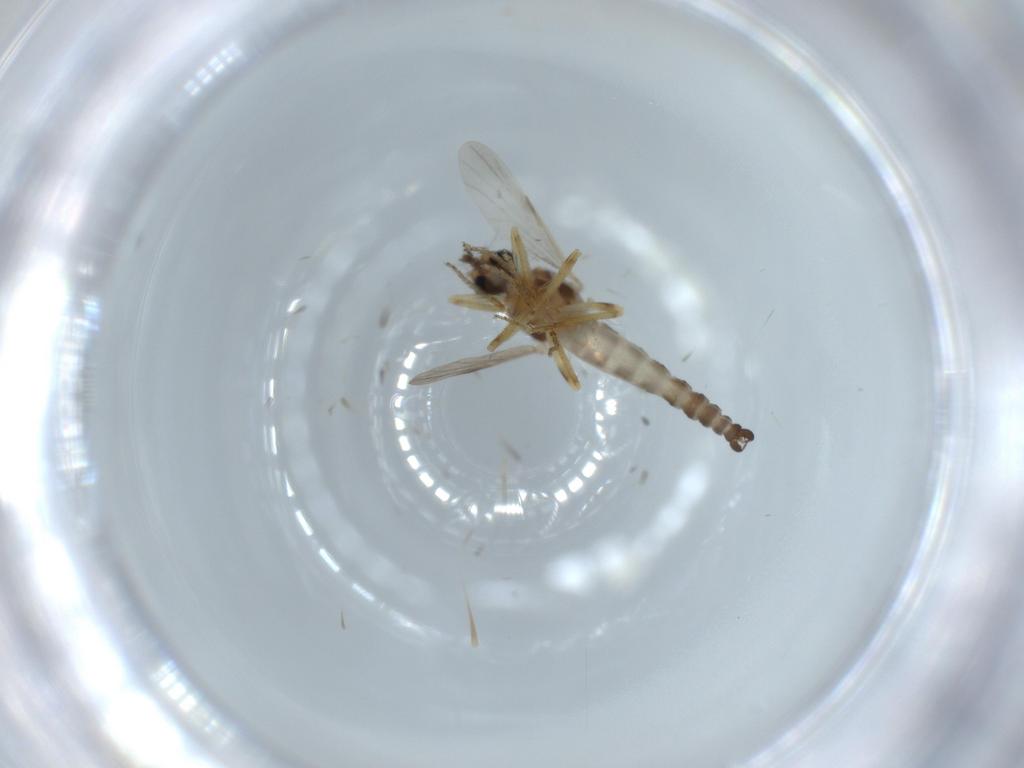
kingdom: Animalia
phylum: Arthropoda
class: Insecta
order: Diptera
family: Ceratopogonidae
